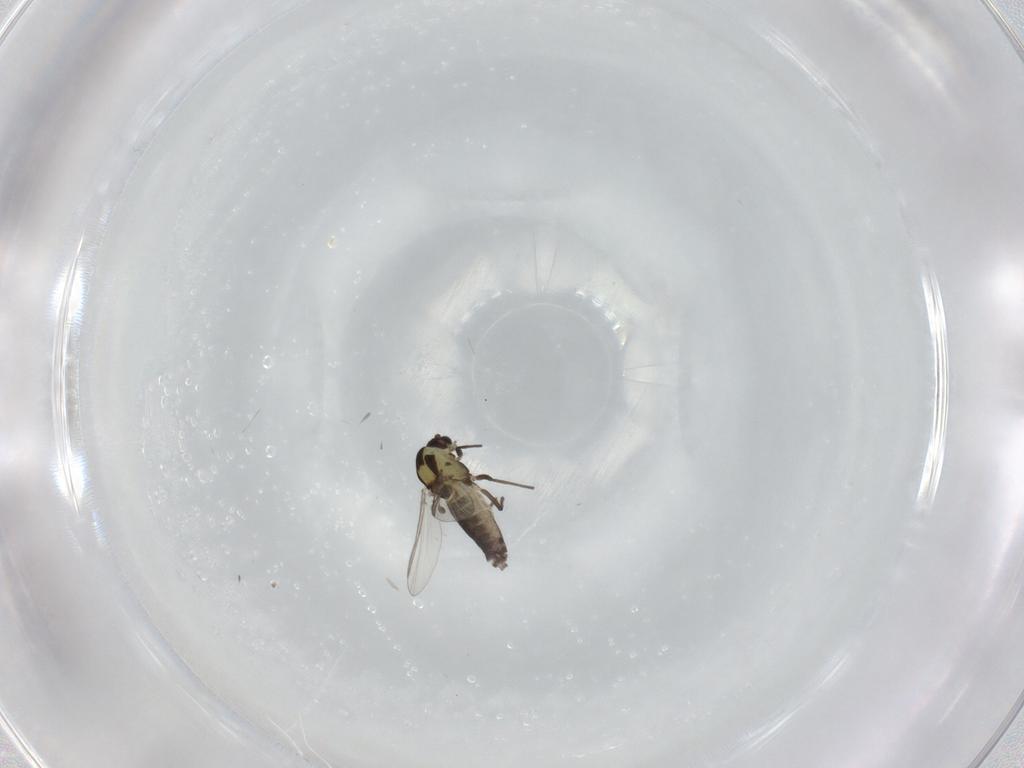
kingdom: Animalia
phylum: Arthropoda
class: Insecta
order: Diptera
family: Chironomidae
